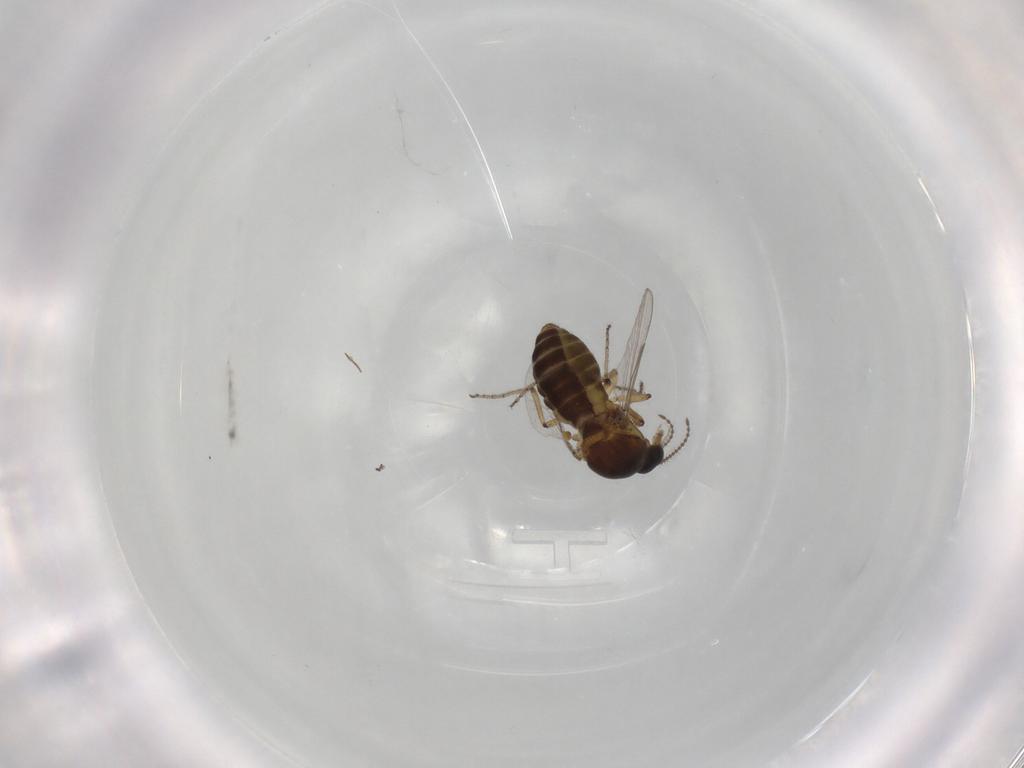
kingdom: Animalia
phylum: Arthropoda
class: Insecta
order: Diptera
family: Ceratopogonidae
